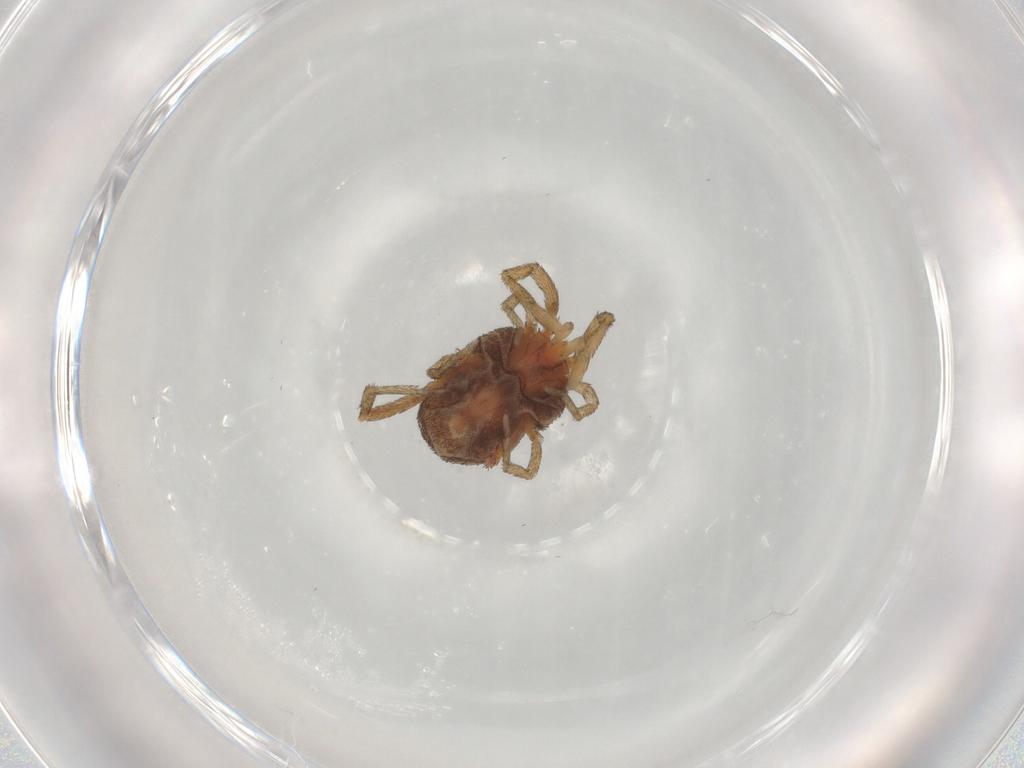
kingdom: Animalia
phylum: Arthropoda
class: Arachnida
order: Trombidiformes
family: Erythraeidae
